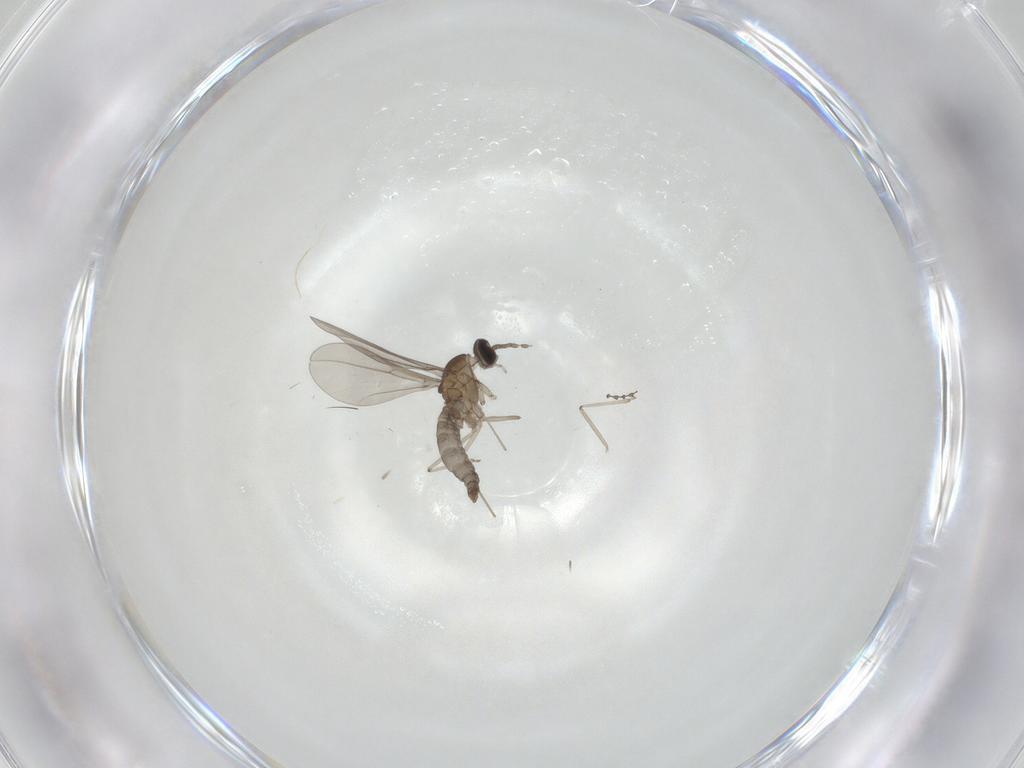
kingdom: Animalia
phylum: Arthropoda
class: Insecta
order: Diptera
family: Cecidomyiidae
